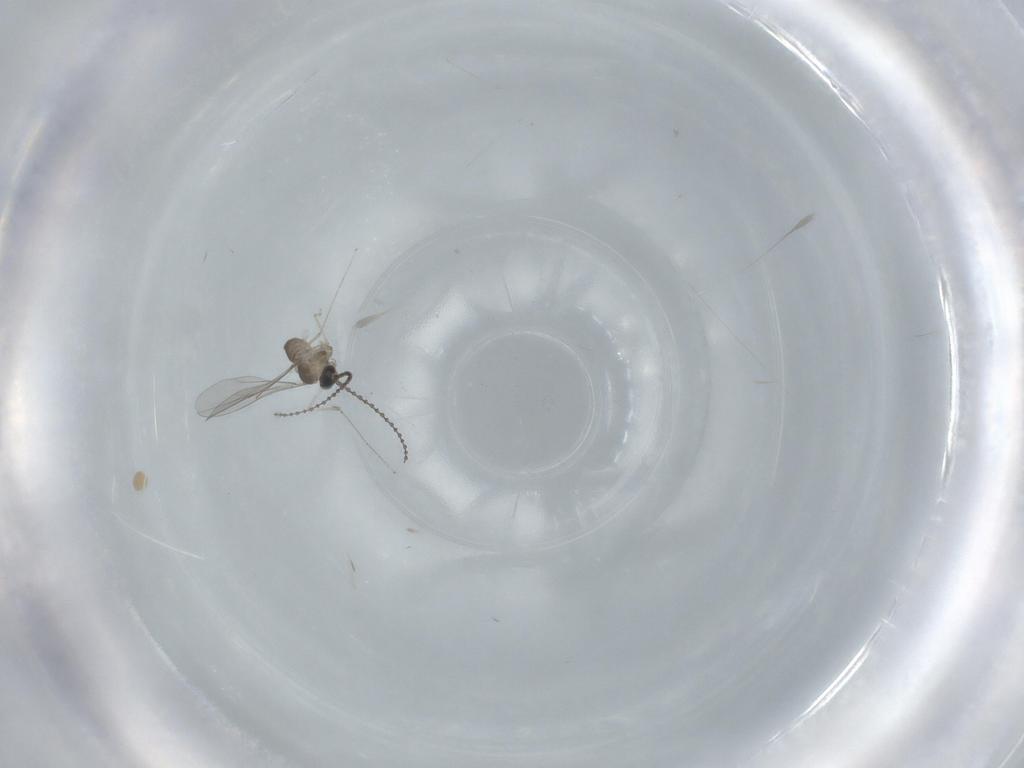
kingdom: Animalia
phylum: Arthropoda
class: Insecta
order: Diptera
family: Cecidomyiidae
